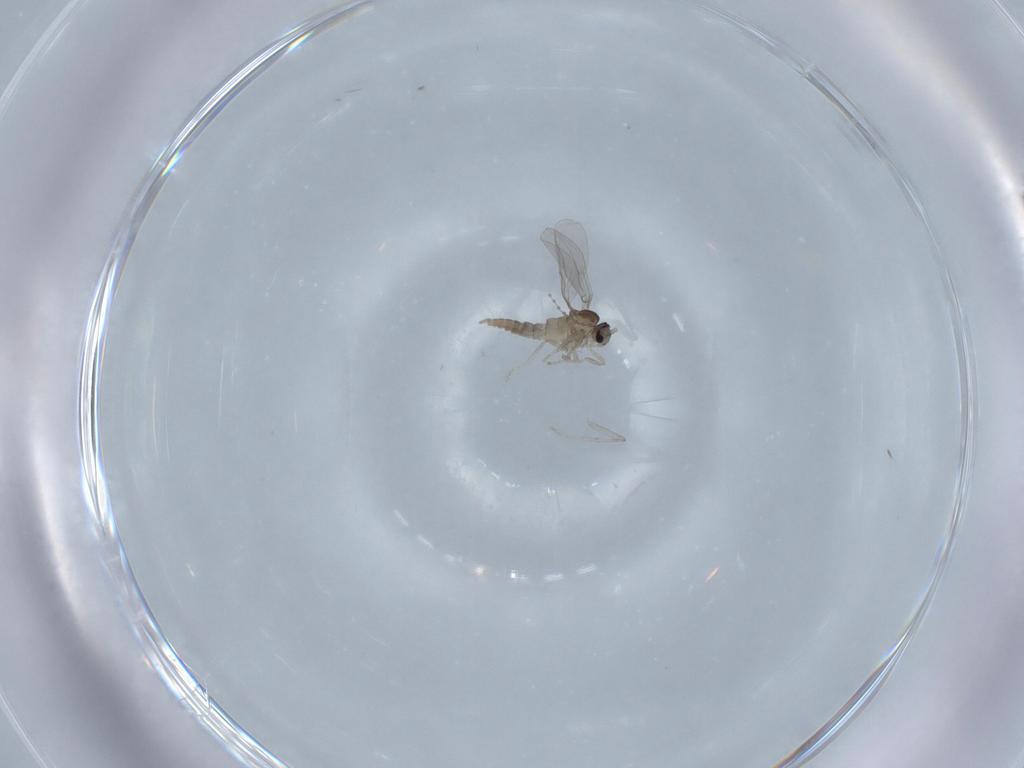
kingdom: Animalia
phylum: Arthropoda
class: Insecta
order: Diptera
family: Cecidomyiidae
